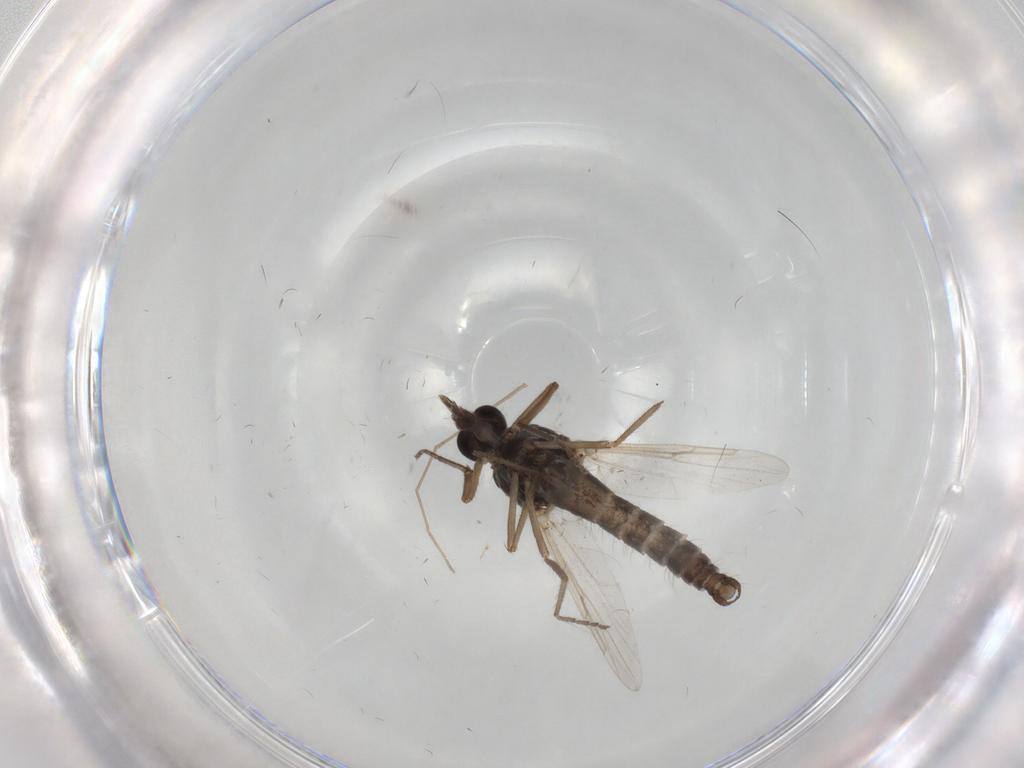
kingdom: Animalia
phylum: Arthropoda
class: Insecta
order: Diptera
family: Ceratopogonidae
